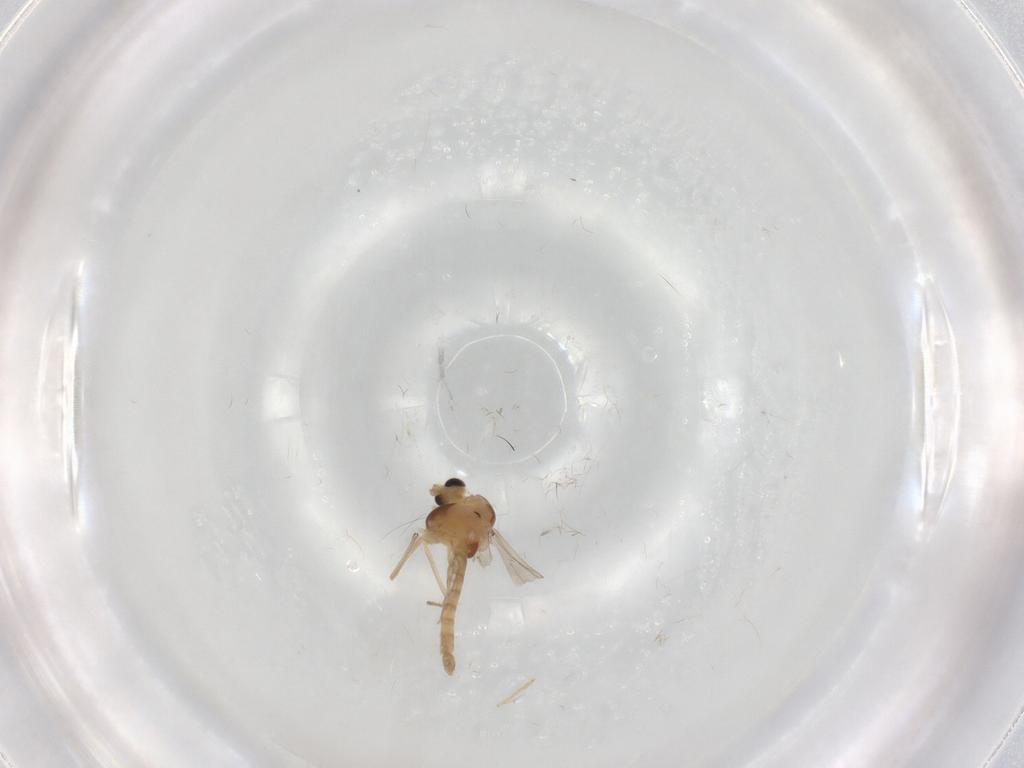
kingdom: Animalia
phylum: Arthropoda
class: Insecta
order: Diptera
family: Chironomidae
